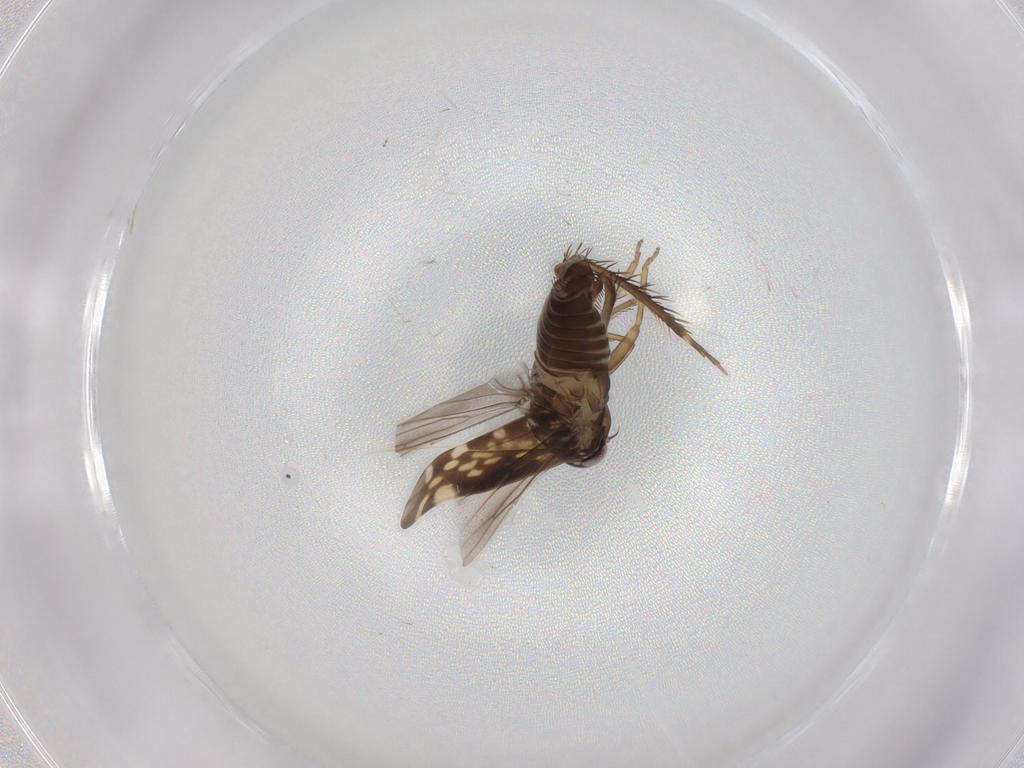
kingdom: Animalia
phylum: Arthropoda
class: Insecta
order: Hemiptera
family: Cicadellidae
